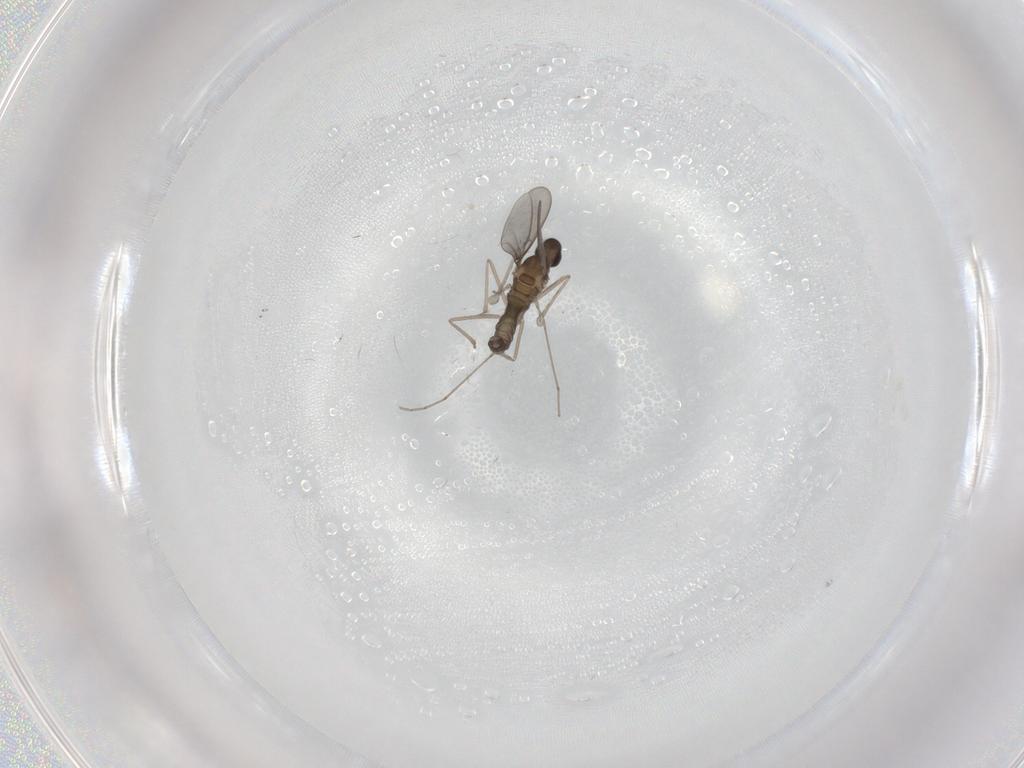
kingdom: Animalia
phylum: Arthropoda
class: Insecta
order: Diptera
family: Cecidomyiidae
